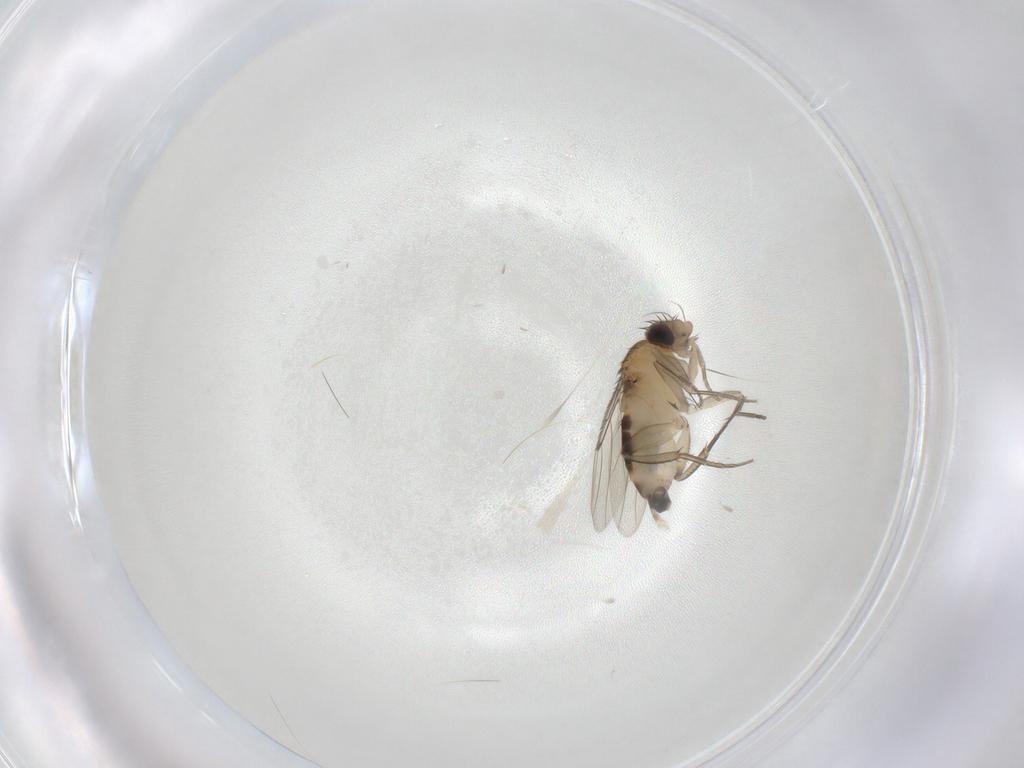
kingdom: Animalia
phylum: Arthropoda
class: Insecta
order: Diptera
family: Phoridae
